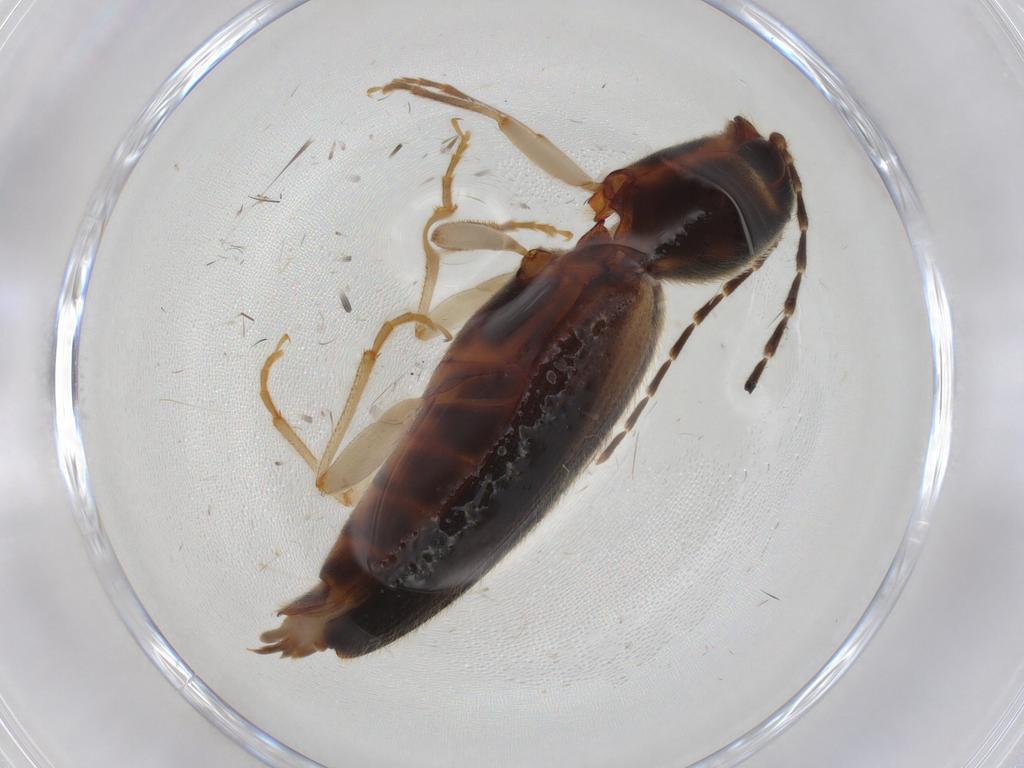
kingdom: Animalia
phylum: Arthropoda
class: Insecta
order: Coleoptera
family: Elateridae
